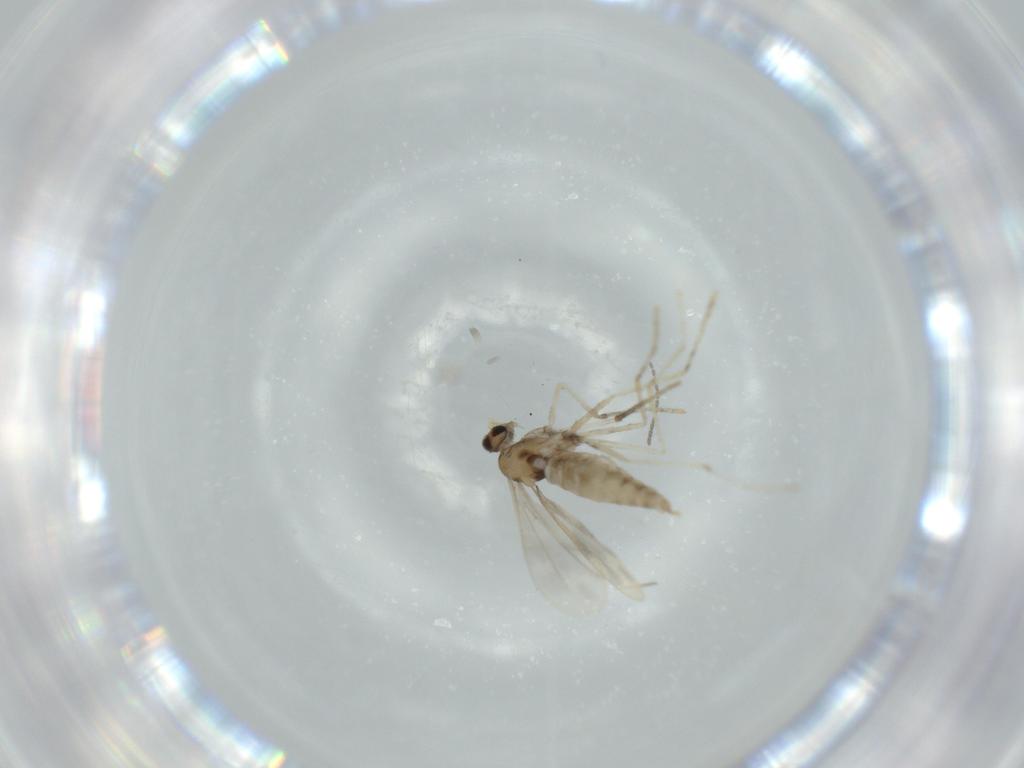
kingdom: Animalia
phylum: Arthropoda
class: Insecta
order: Diptera
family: Cecidomyiidae
